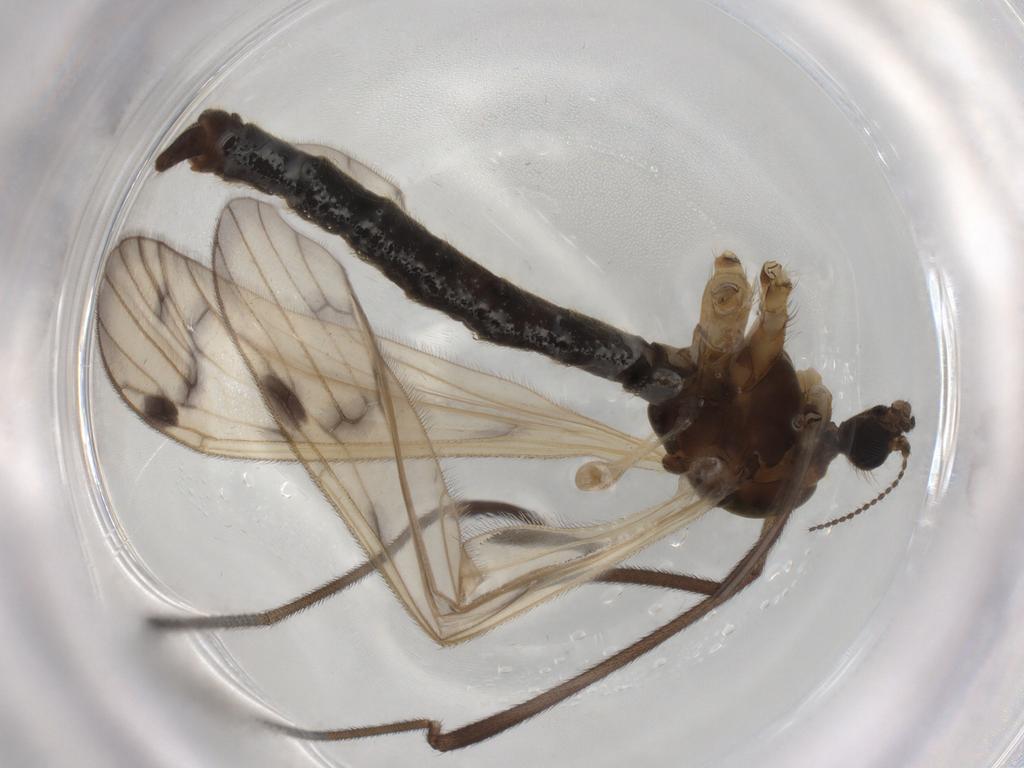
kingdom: Animalia
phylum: Arthropoda
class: Insecta
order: Diptera
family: Limoniidae
